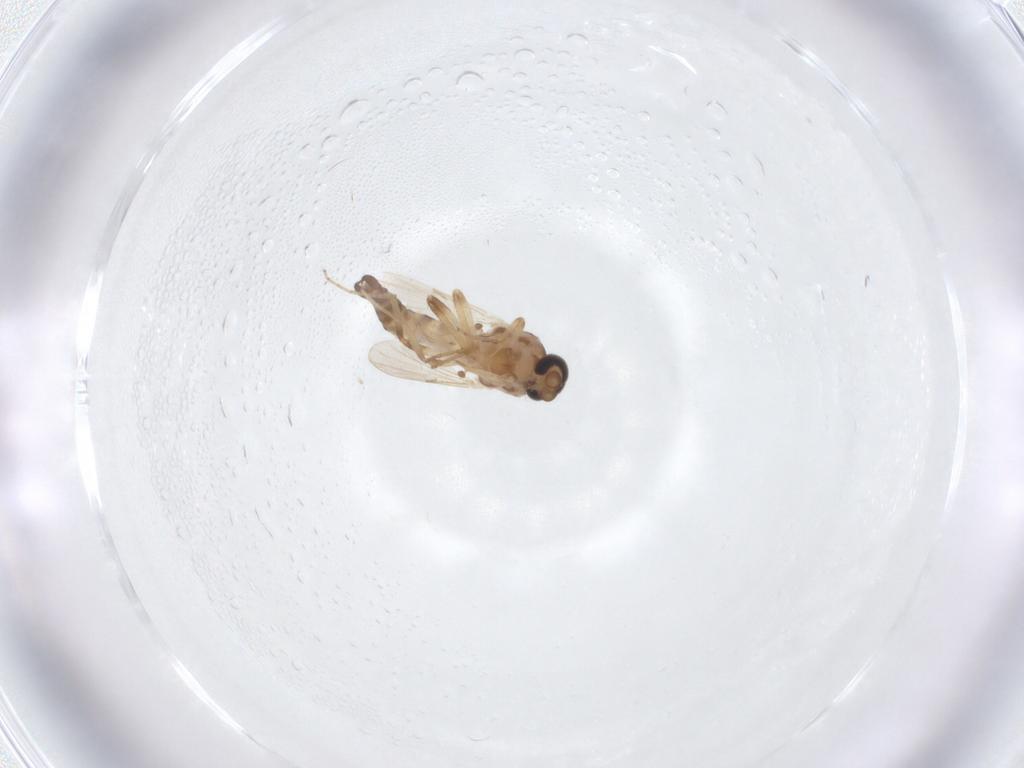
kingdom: Animalia
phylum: Arthropoda
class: Insecta
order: Diptera
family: Ceratopogonidae
